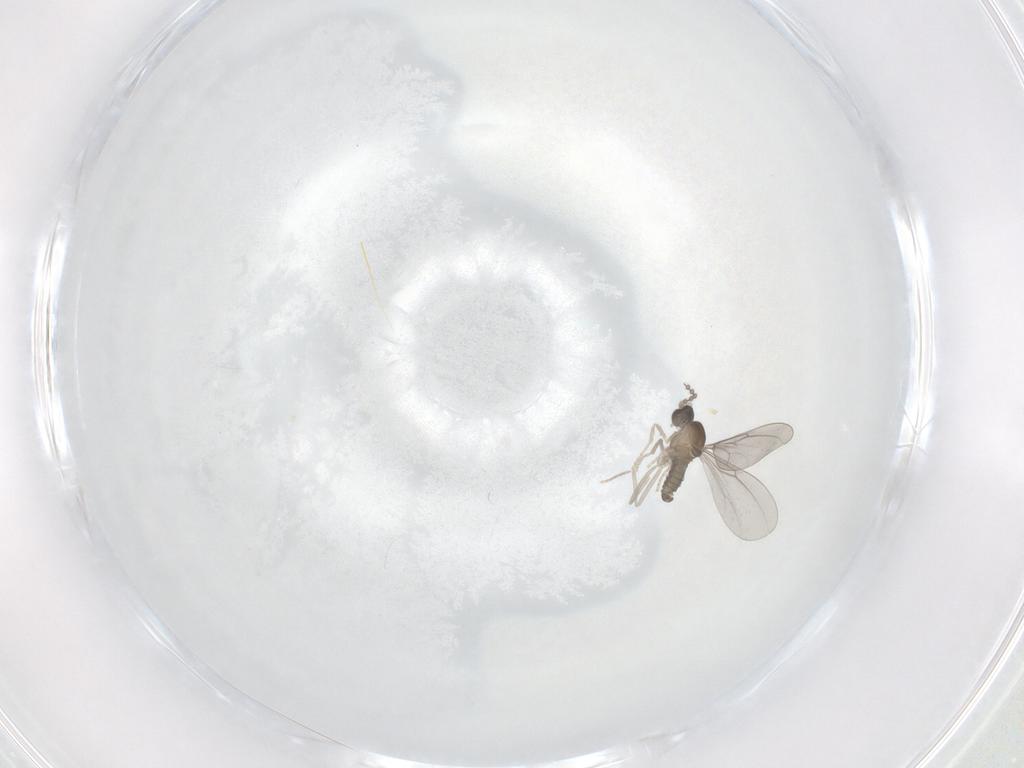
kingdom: Animalia
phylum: Arthropoda
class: Insecta
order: Diptera
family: Cecidomyiidae
